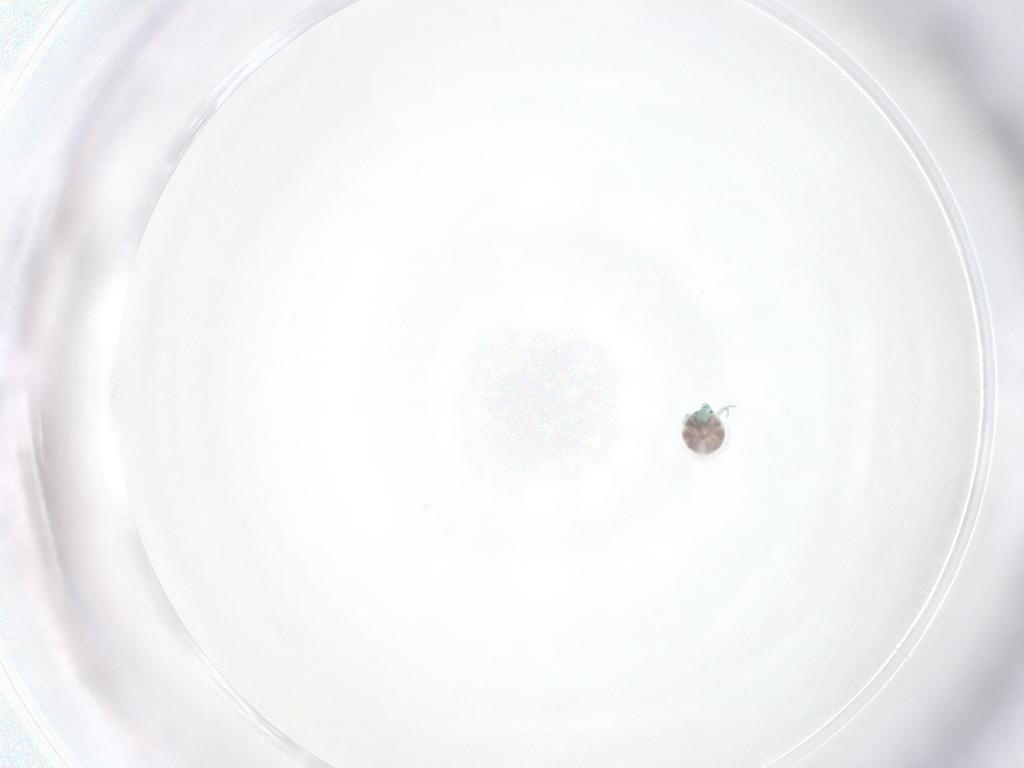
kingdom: Animalia
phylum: Arthropoda
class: Arachnida
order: Trombidiformes
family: Arrenuridae
